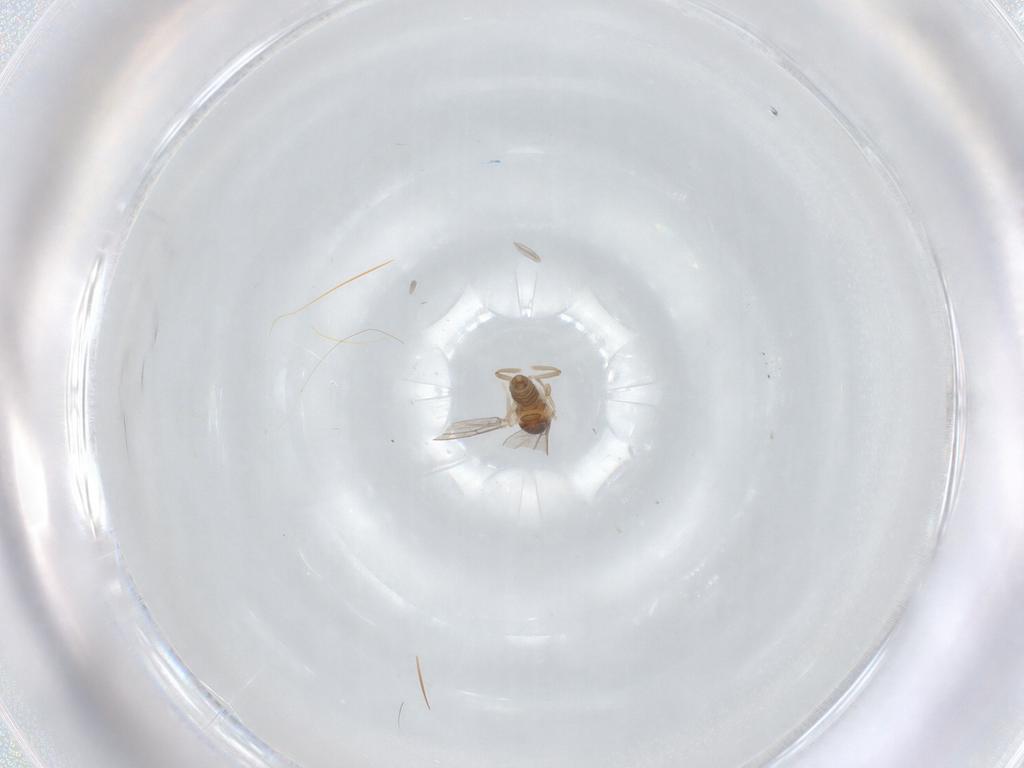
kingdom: Animalia
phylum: Arthropoda
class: Insecta
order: Diptera
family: Cecidomyiidae
